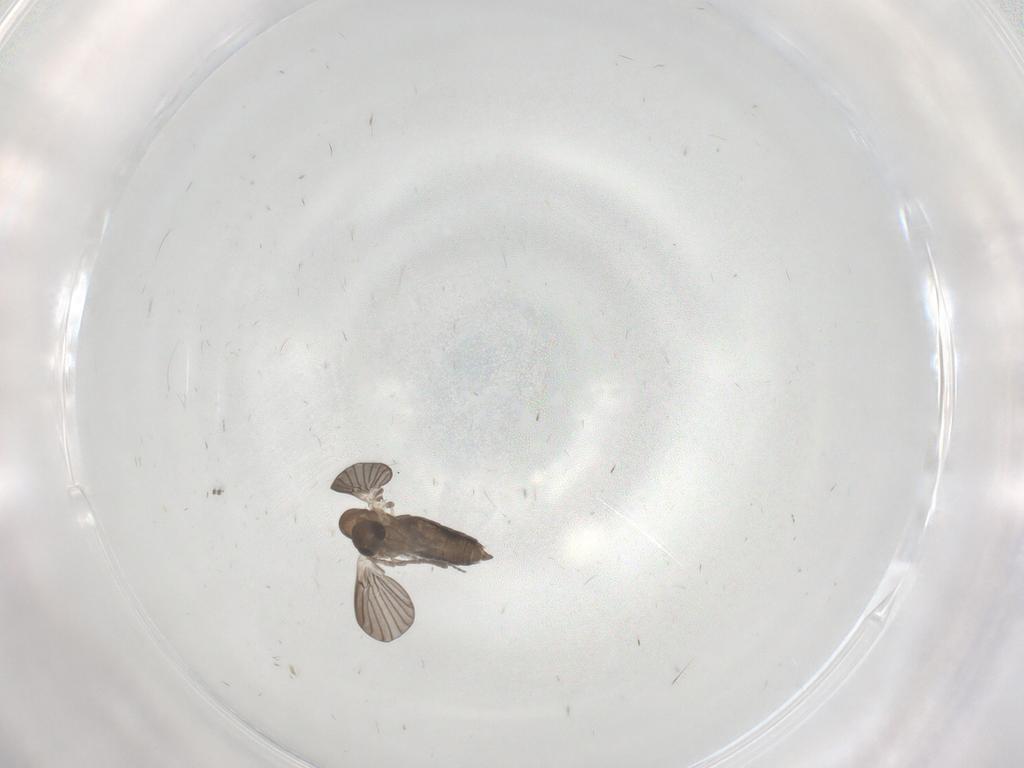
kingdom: Animalia
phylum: Arthropoda
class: Insecta
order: Diptera
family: Cecidomyiidae
